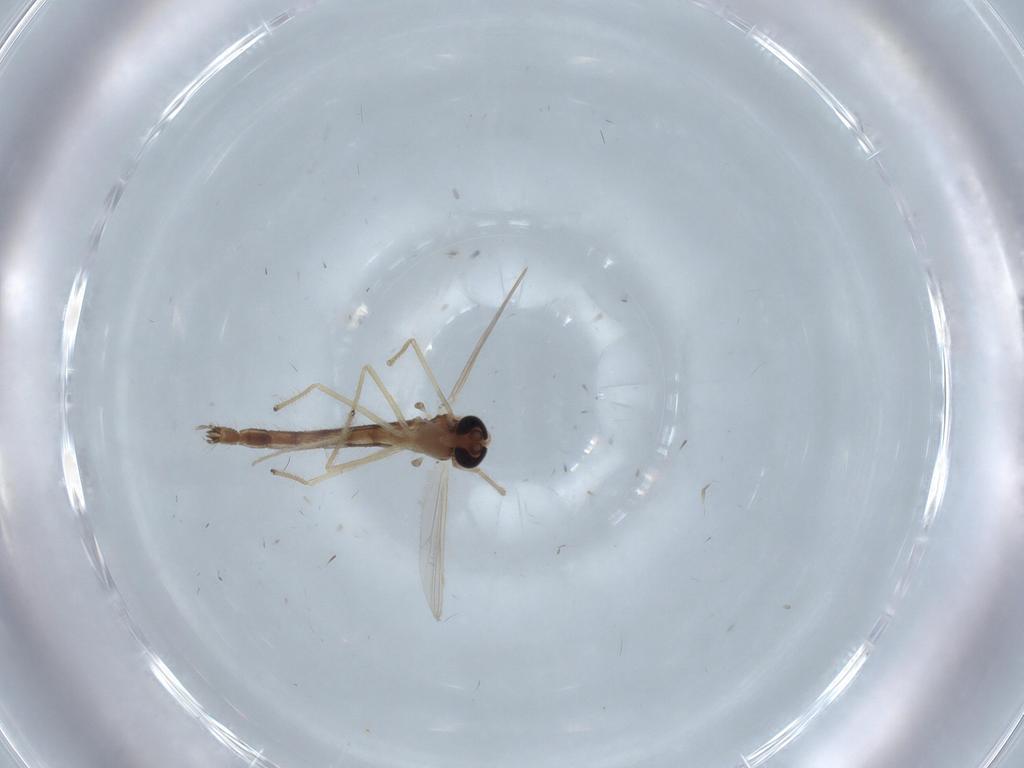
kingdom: Animalia
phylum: Arthropoda
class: Insecta
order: Diptera
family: Chironomidae
